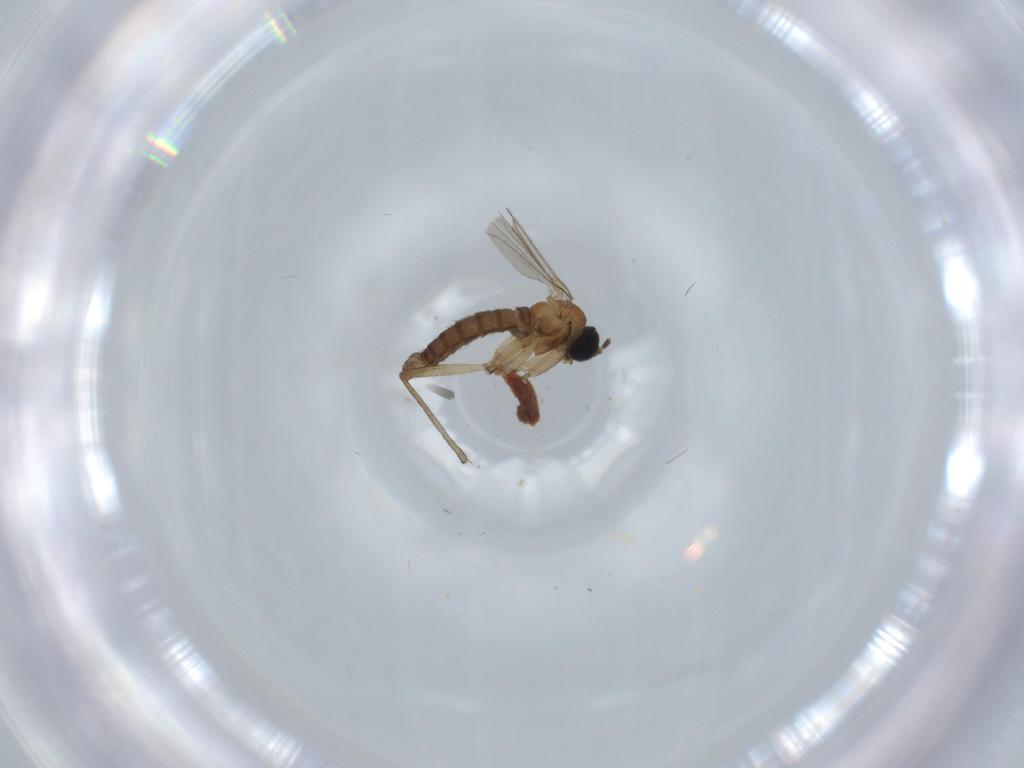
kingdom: Animalia
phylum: Arthropoda
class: Insecta
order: Diptera
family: Sciaridae
